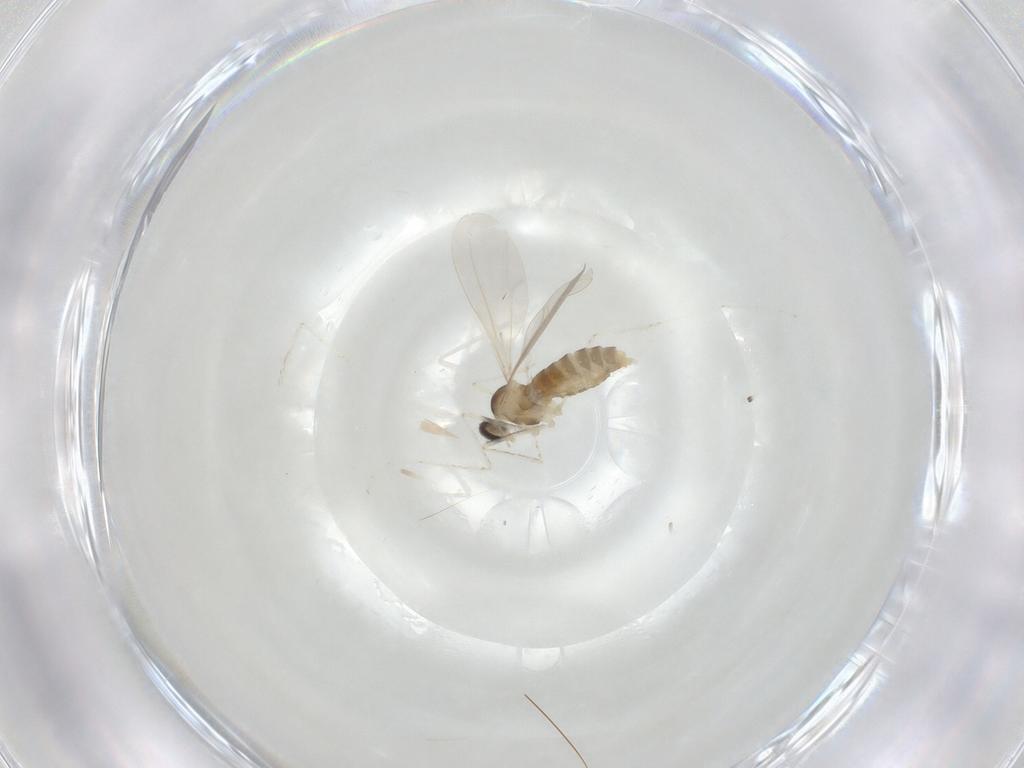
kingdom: Animalia
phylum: Arthropoda
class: Insecta
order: Diptera
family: Cecidomyiidae
